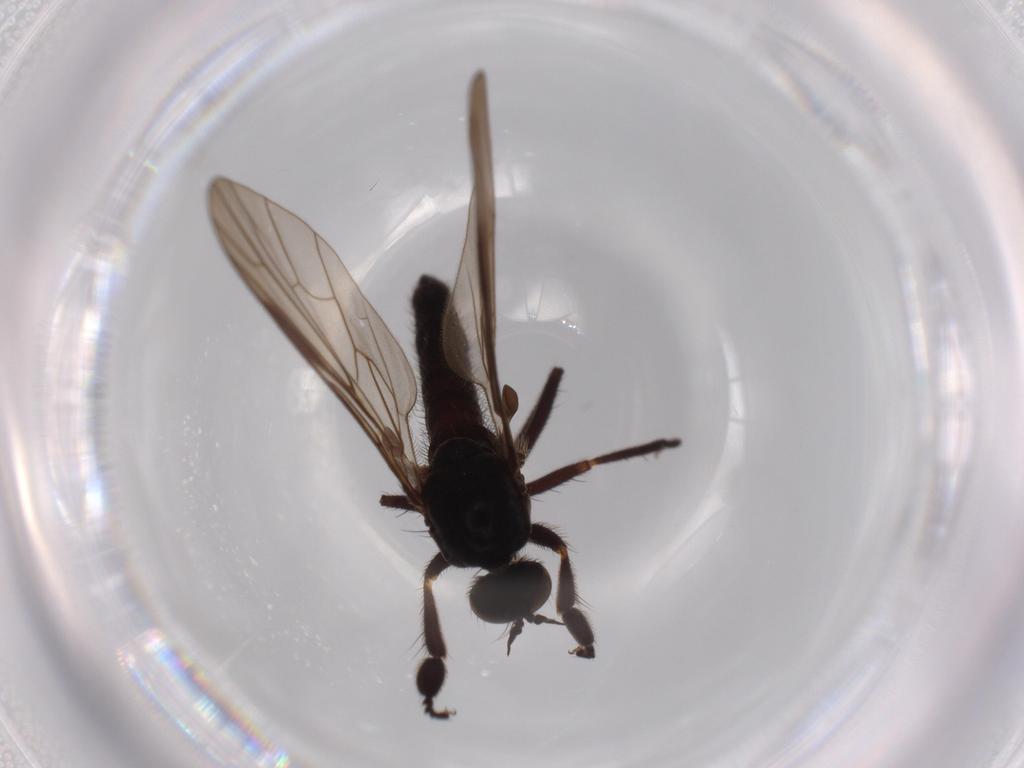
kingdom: Animalia
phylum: Arthropoda
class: Insecta
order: Diptera
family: Empididae
